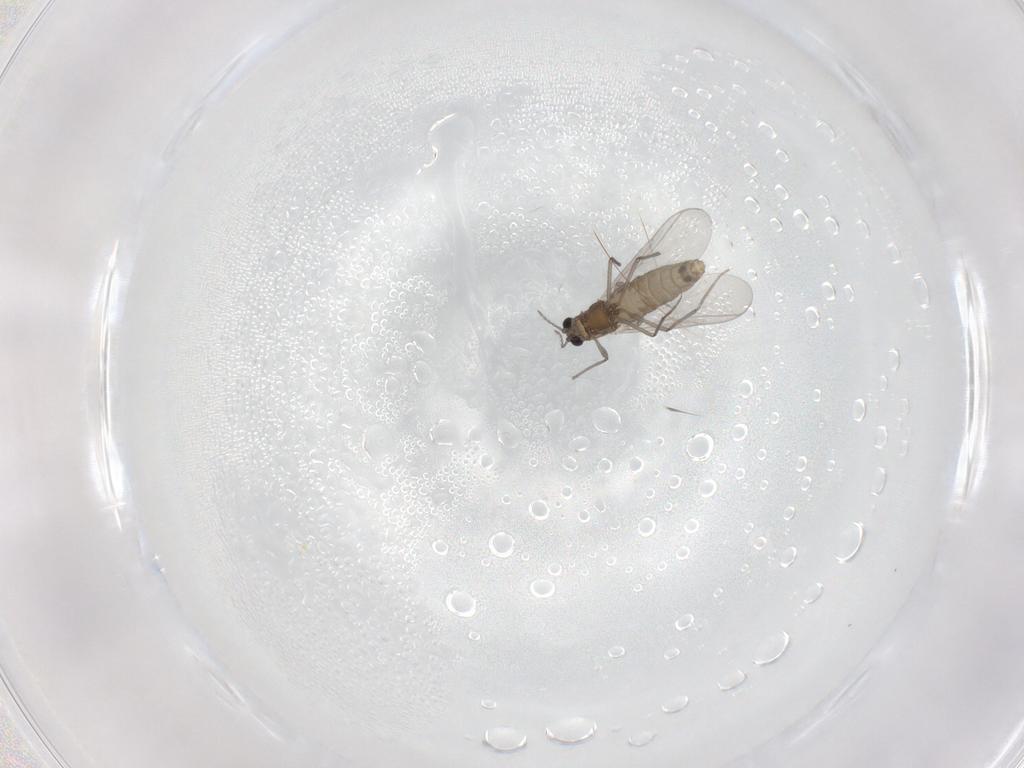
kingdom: Animalia
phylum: Arthropoda
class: Insecta
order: Diptera
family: Chironomidae
